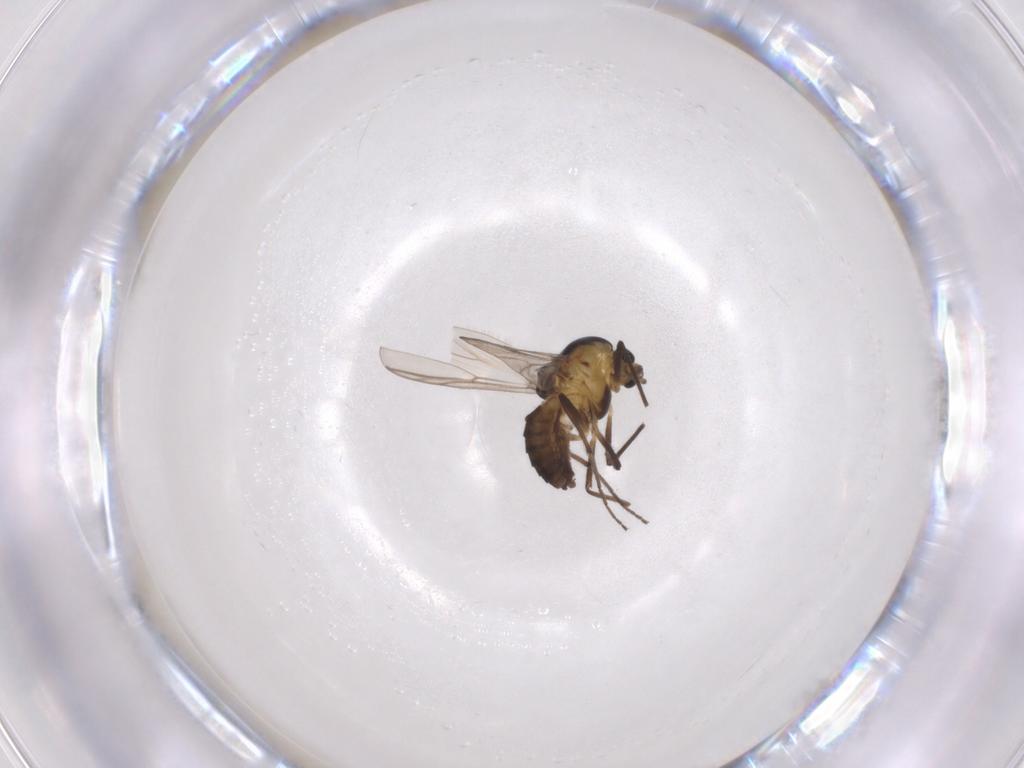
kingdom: Animalia
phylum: Arthropoda
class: Insecta
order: Diptera
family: Chironomidae
